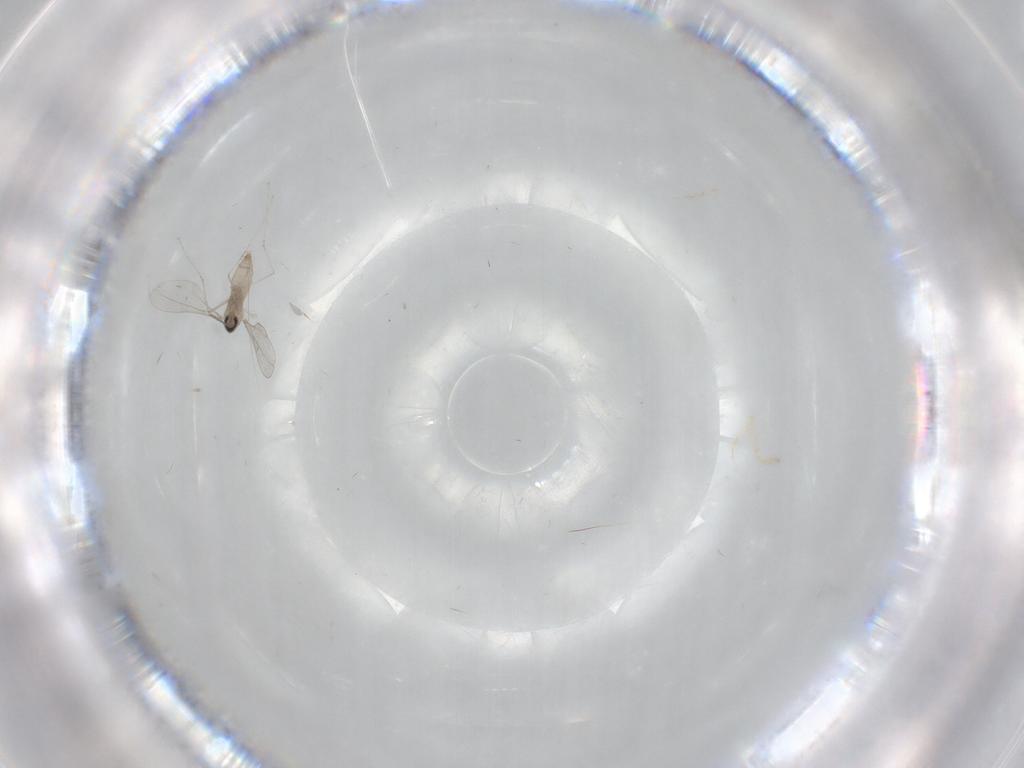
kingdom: Animalia
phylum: Arthropoda
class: Insecta
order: Diptera
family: Cecidomyiidae
